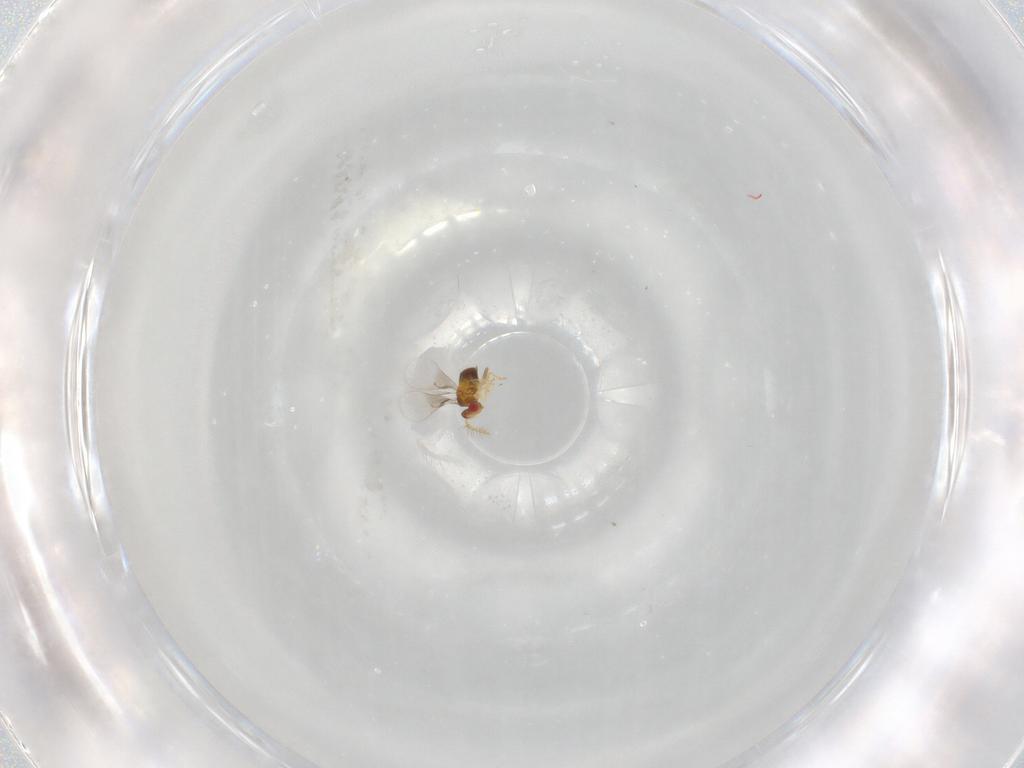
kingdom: Animalia
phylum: Arthropoda
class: Insecta
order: Hymenoptera
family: Trichogrammatidae
